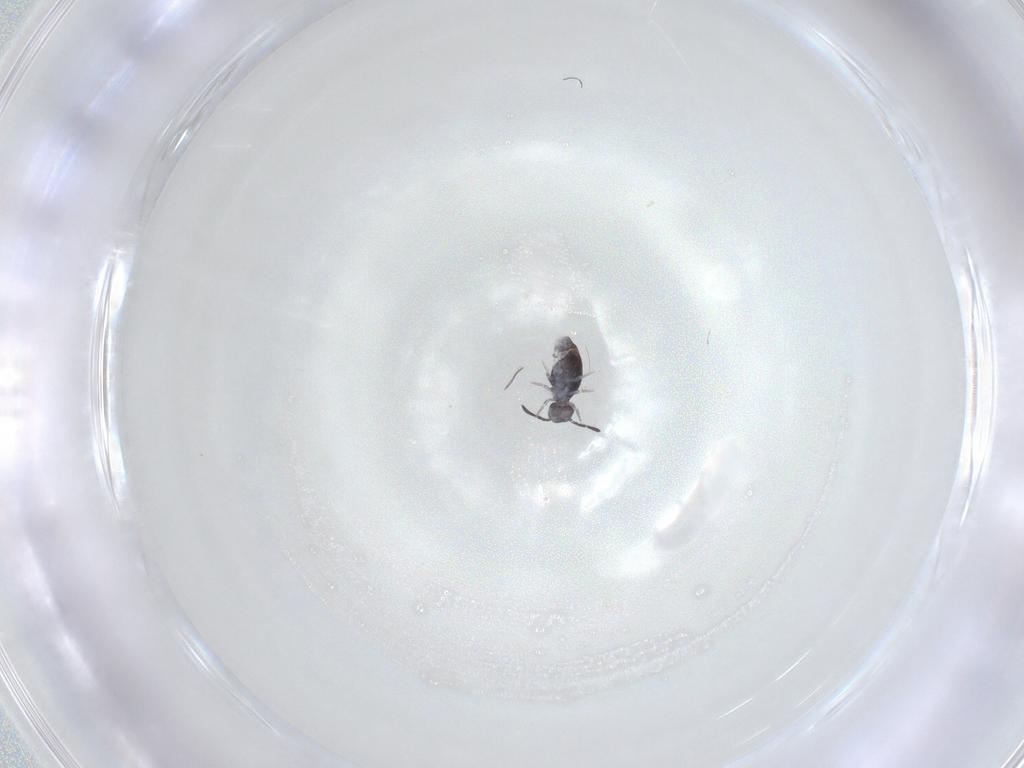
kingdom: Animalia
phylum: Arthropoda
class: Collembola
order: Symphypleona
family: Katiannidae
